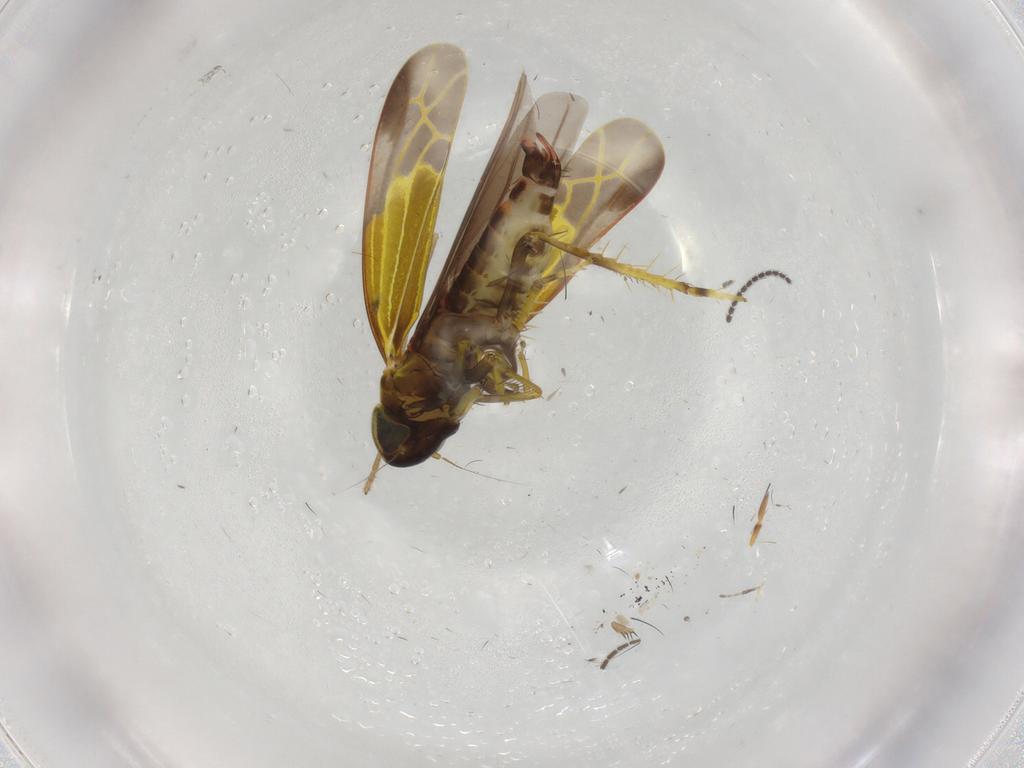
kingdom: Animalia
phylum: Arthropoda
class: Insecta
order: Hemiptera
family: Cicadellidae
